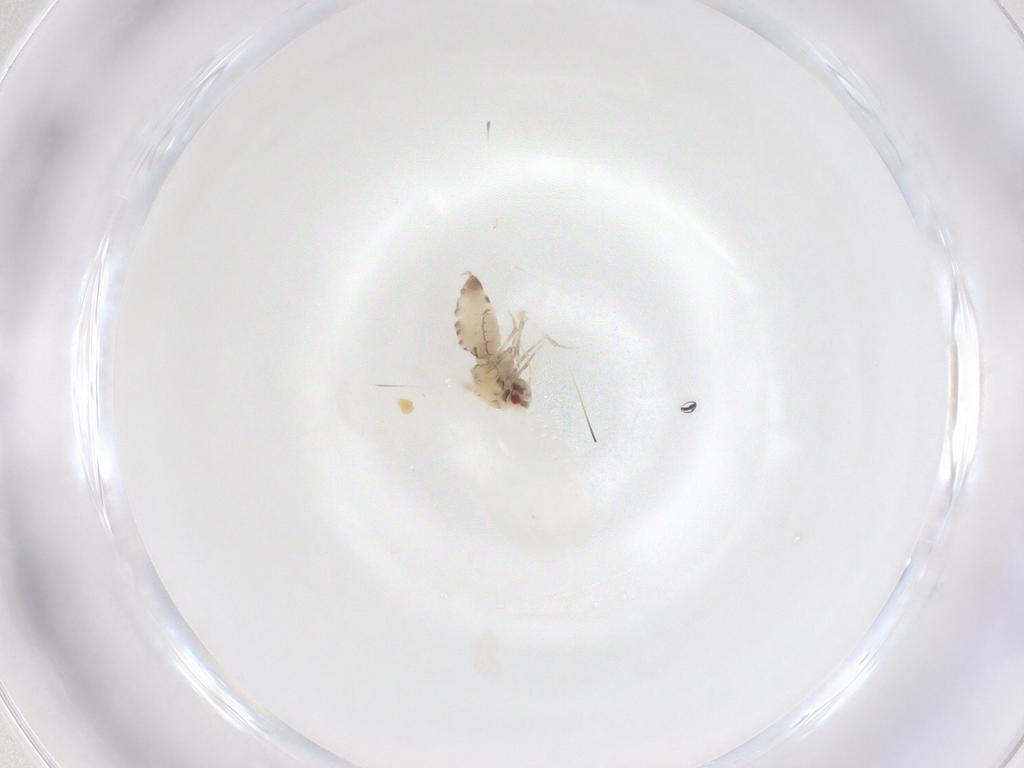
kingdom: Animalia
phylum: Arthropoda
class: Insecta
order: Hemiptera
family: Aleyrodidae
